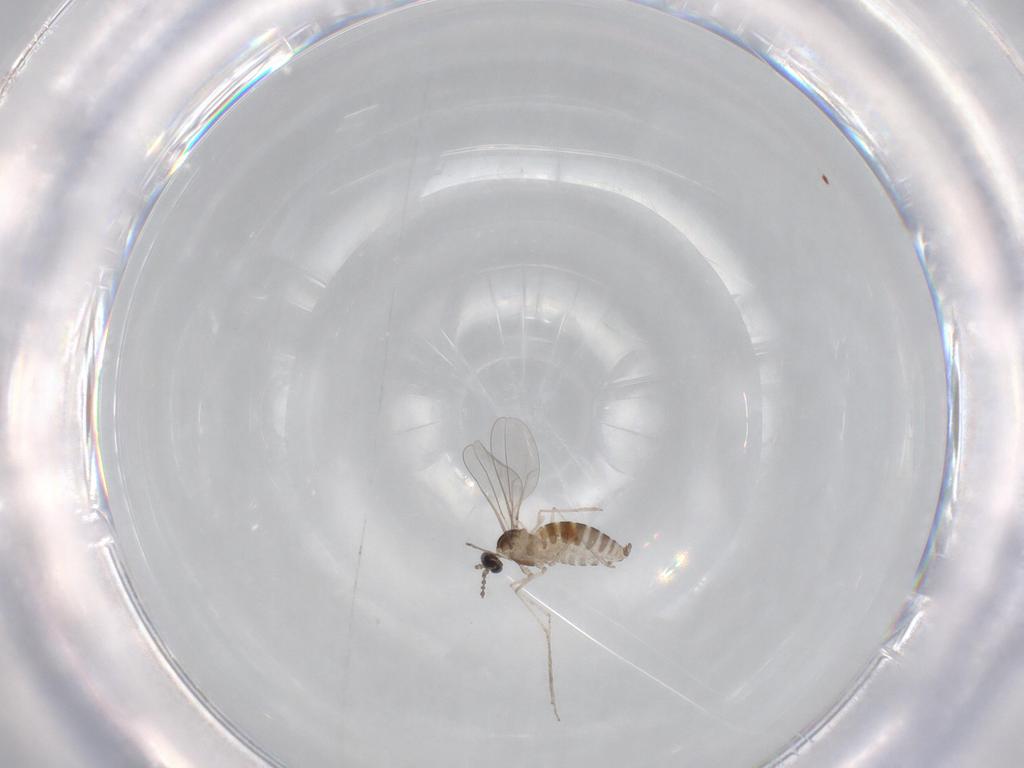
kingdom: Animalia
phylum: Arthropoda
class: Insecta
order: Diptera
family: Cecidomyiidae
